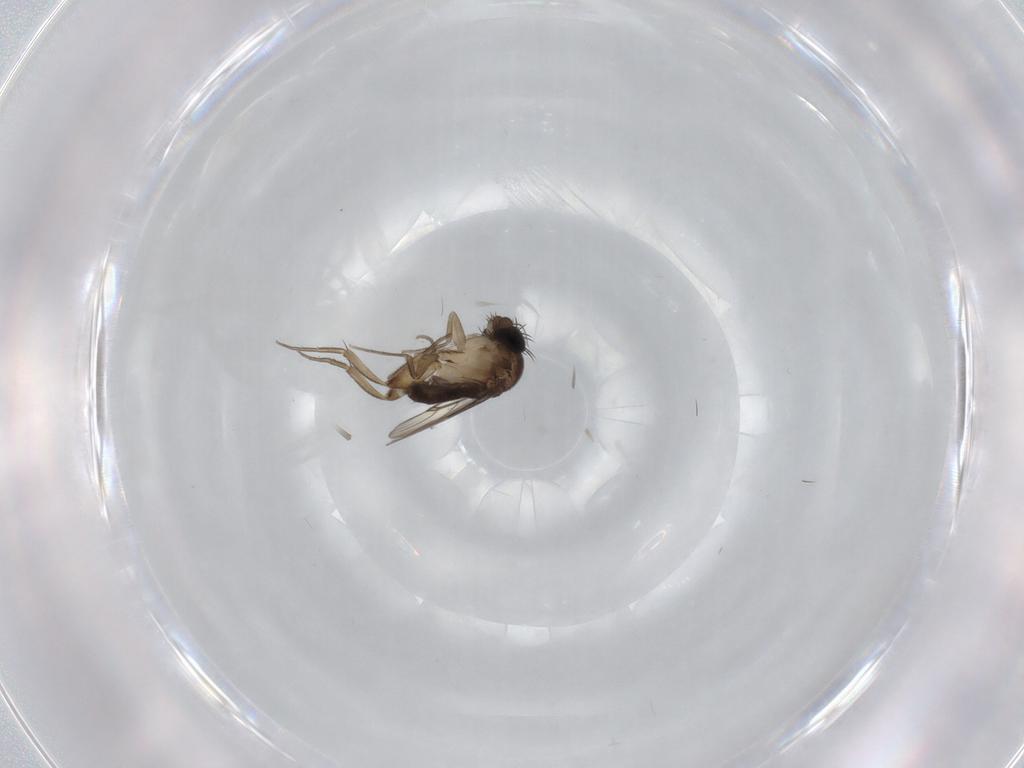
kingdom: Animalia
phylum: Arthropoda
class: Insecta
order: Diptera
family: Phoridae
